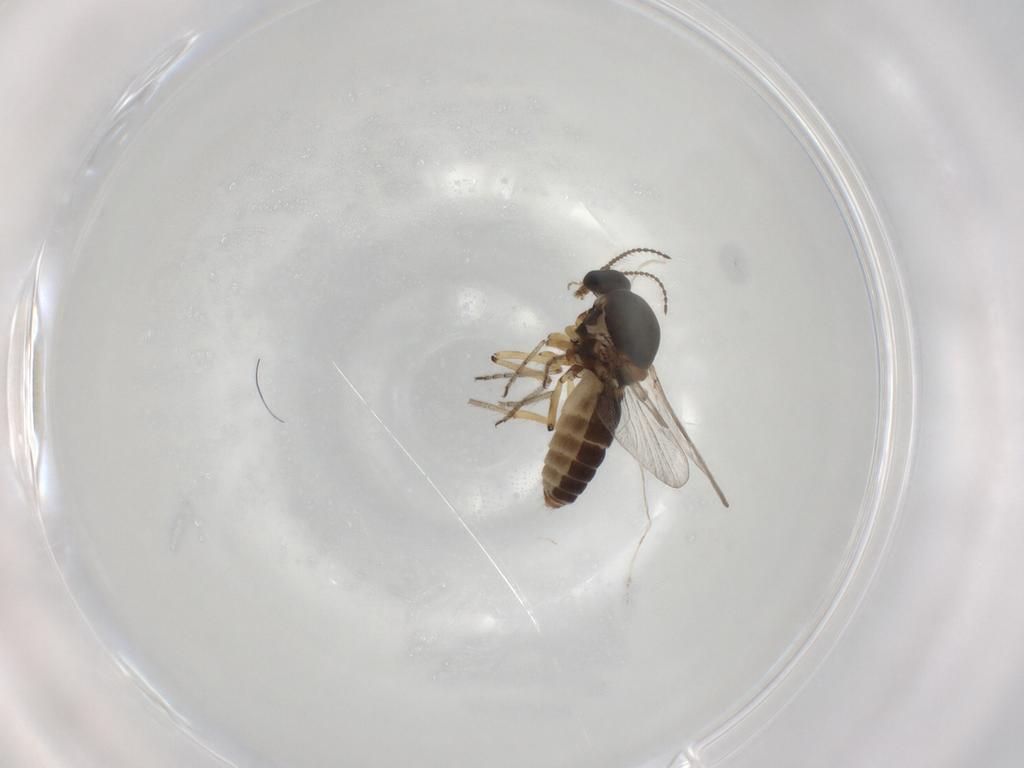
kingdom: Animalia
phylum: Arthropoda
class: Insecta
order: Diptera
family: Ceratopogonidae
